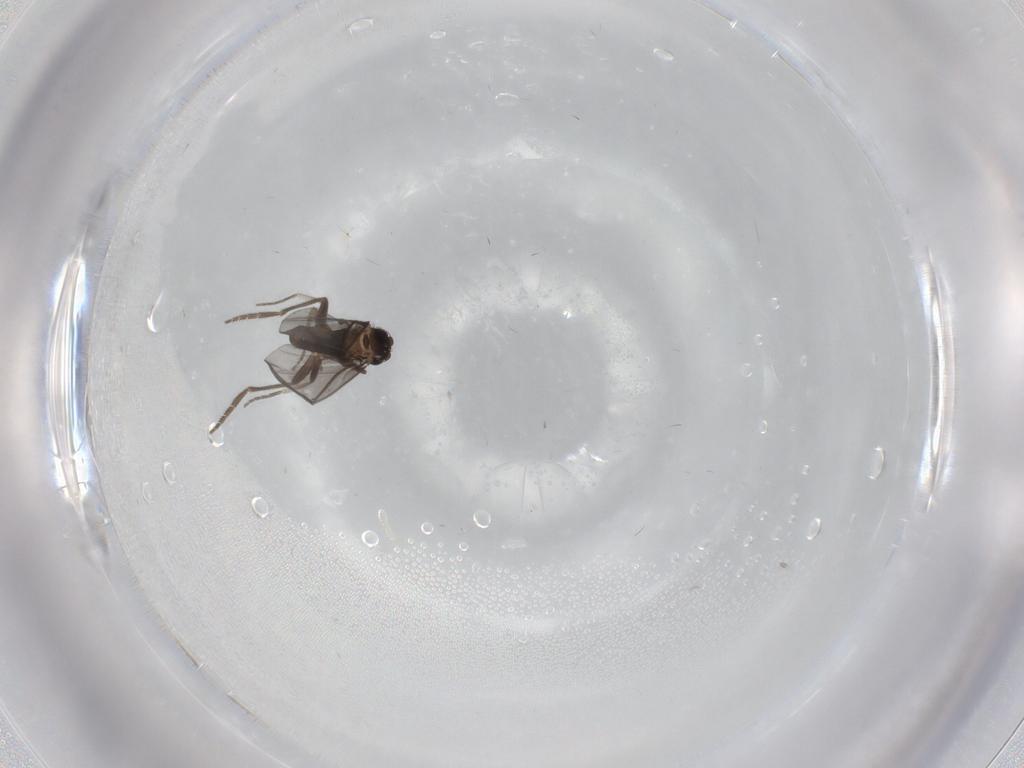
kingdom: Animalia
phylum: Arthropoda
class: Insecta
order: Diptera
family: Phoridae
